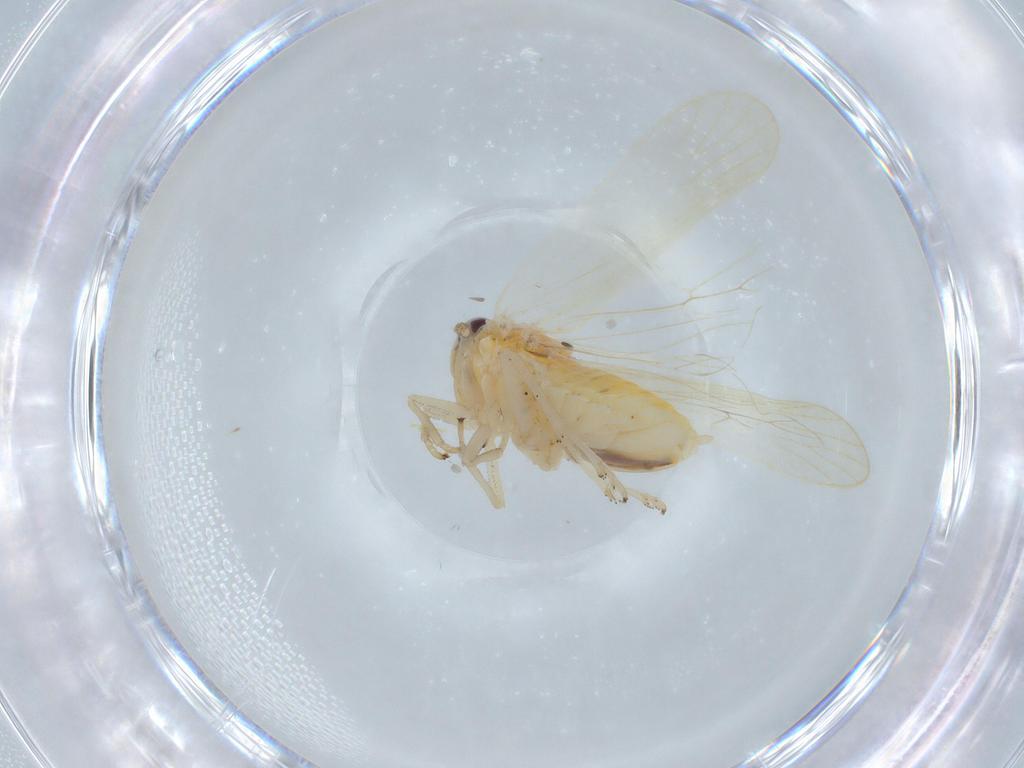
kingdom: Animalia
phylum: Arthropoda
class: Insecta
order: Hemiptera
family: Delphacidae
